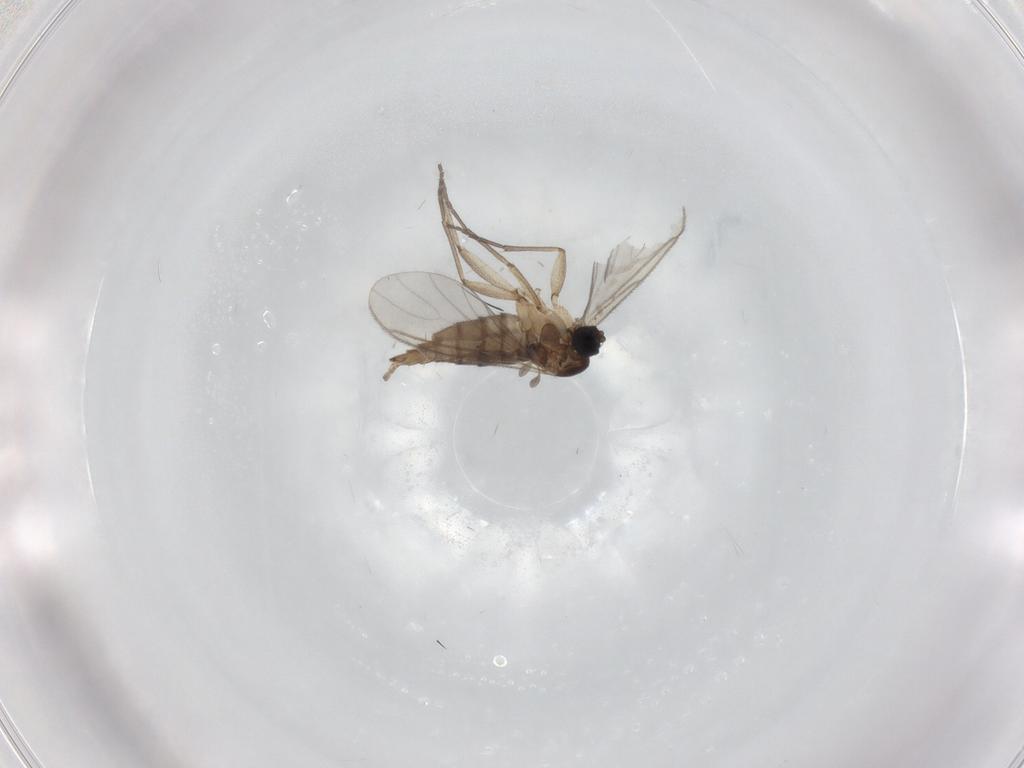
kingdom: Animalia
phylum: Arthropoda
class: Insecta
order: Diptera
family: Sciaridae
